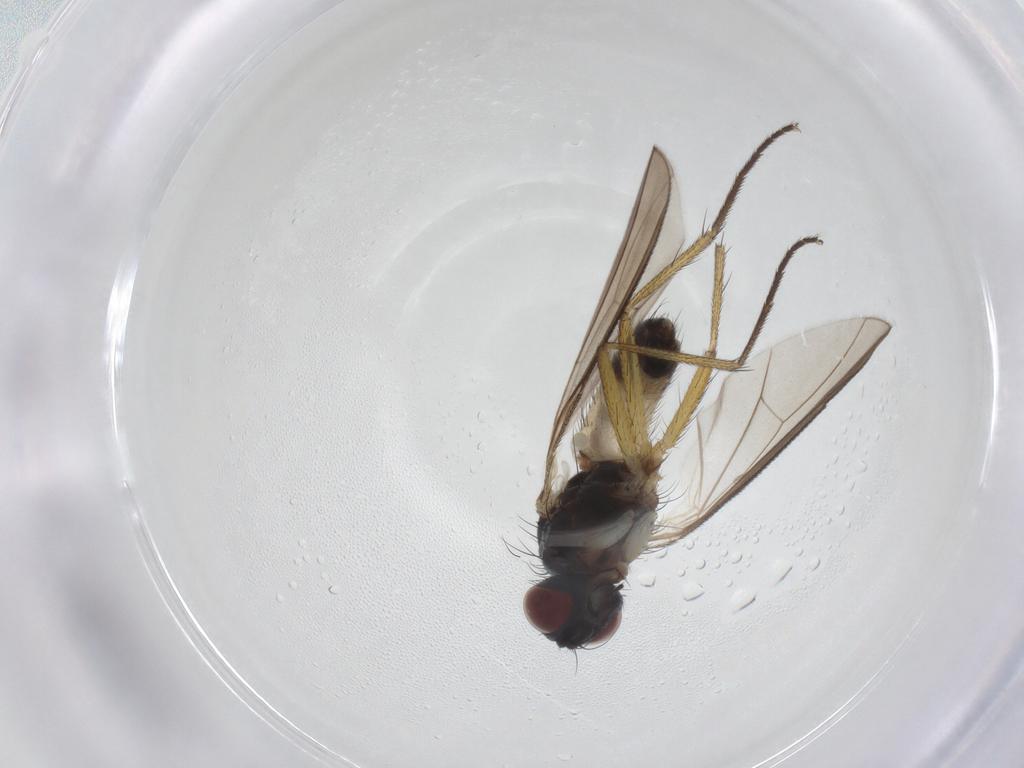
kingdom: Animalia
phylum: Arthropoda
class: Insecta
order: Diptera
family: Muscidae
